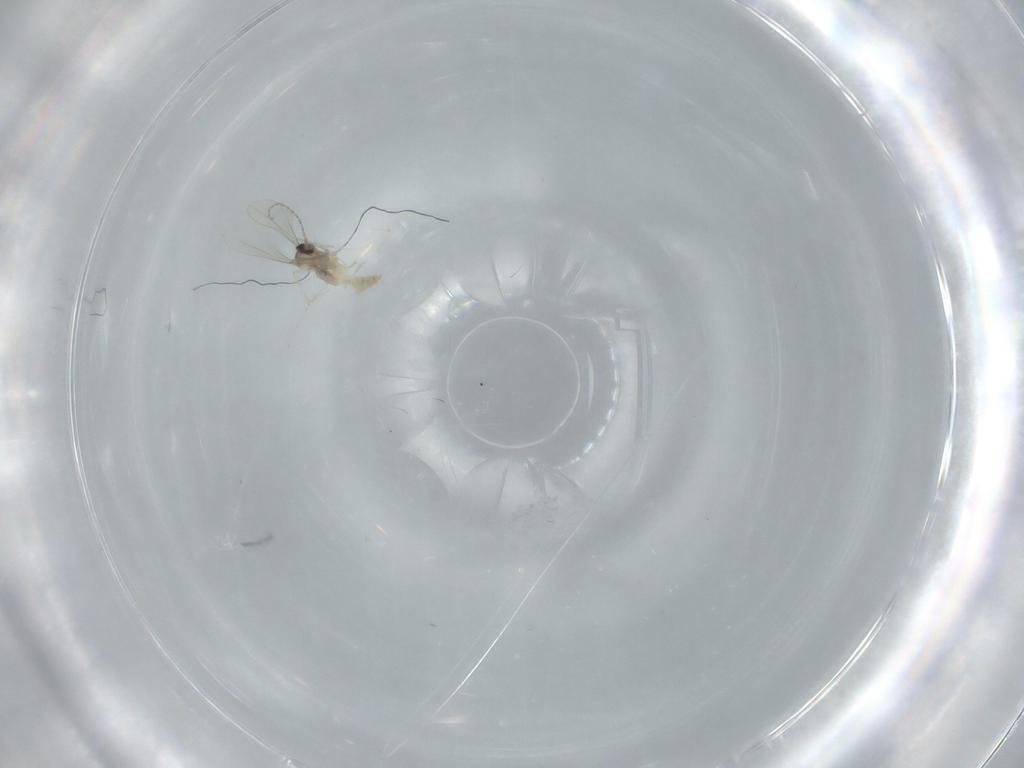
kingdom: Animalia
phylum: Arthropoda
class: Insecta
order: Diptera
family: Cecidomyiidae
